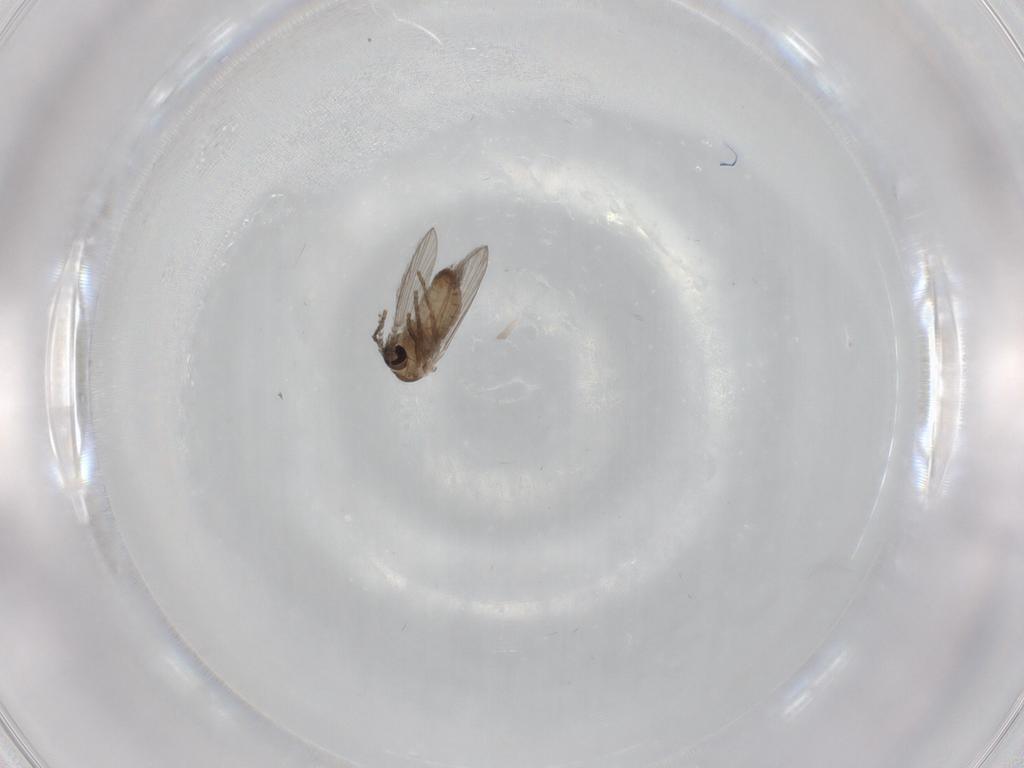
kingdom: Animalia
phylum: Arthropoda
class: Insecta
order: Diptera
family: Psychodidae
